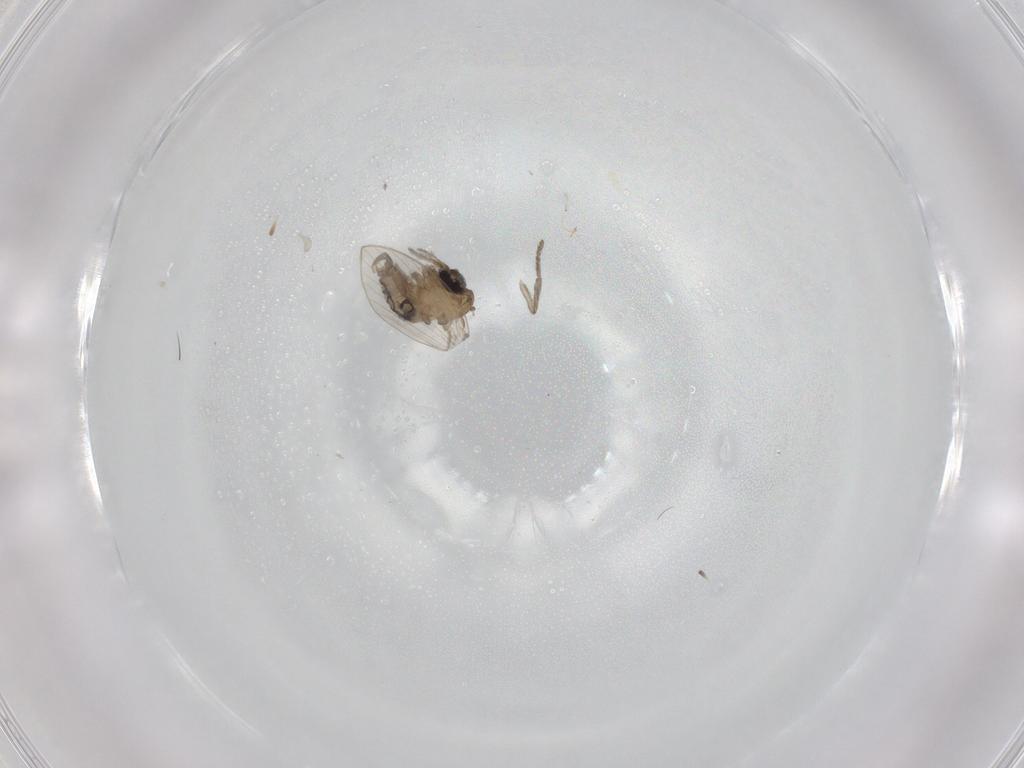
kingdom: Animalia
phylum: Arthropoda
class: Insecta
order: Diptera
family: Psychodidae
